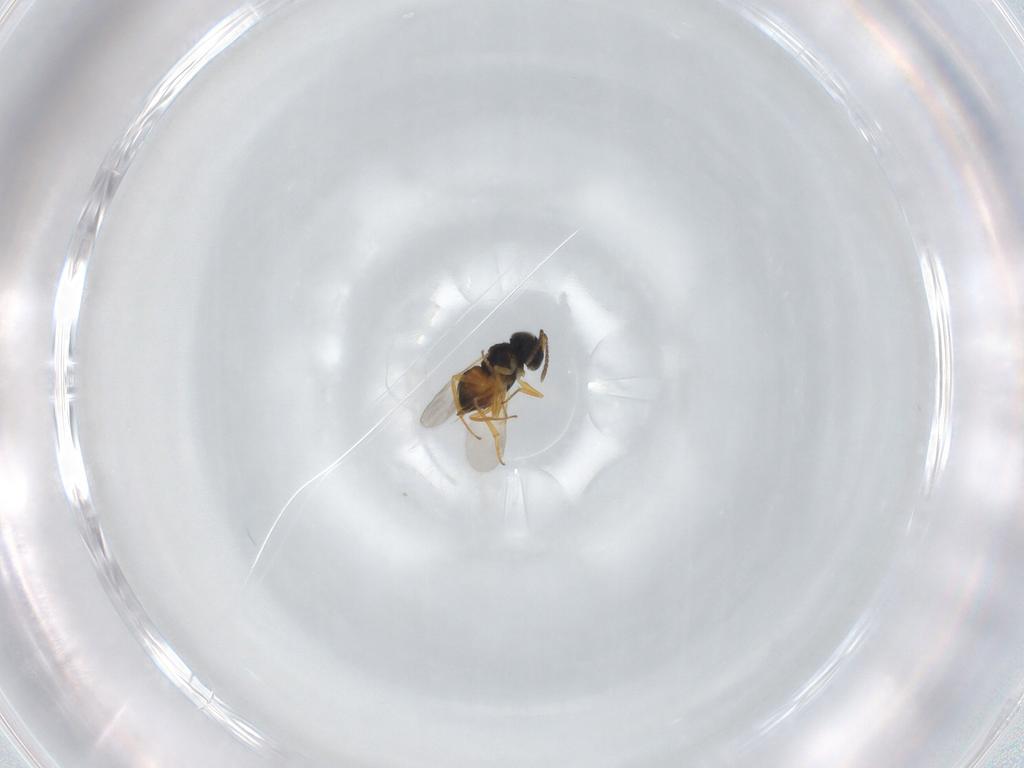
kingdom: Animalia
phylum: Arthropoda
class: Insecta
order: Hymenoptera
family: Encyrtidae
